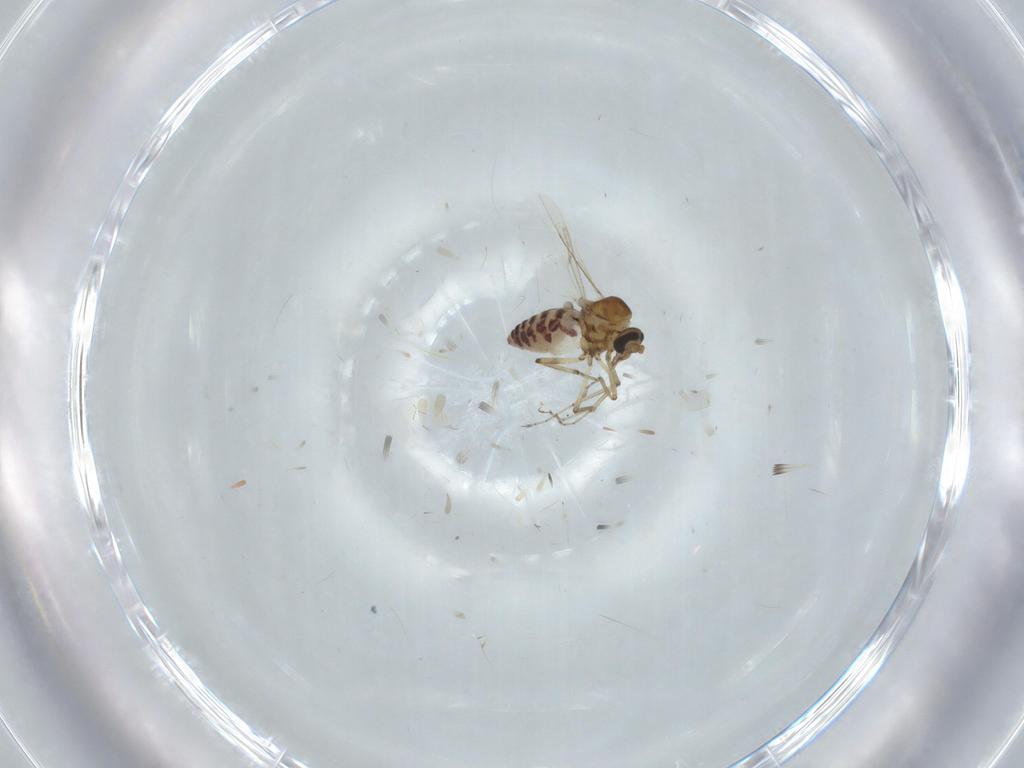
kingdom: Animalia
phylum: Arthropoda
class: Insecta
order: Diptera
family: Ceratopogonidae
